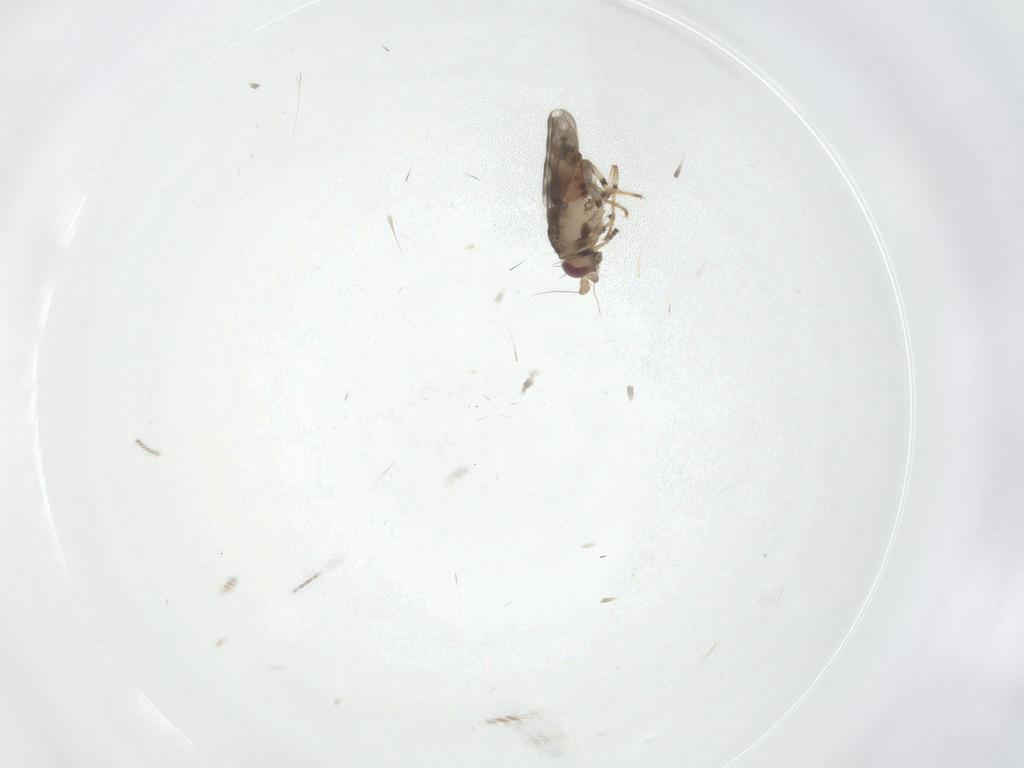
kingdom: Animalia
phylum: Arthropoda
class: Insecta
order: Diptera
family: Sphaeroceridae
